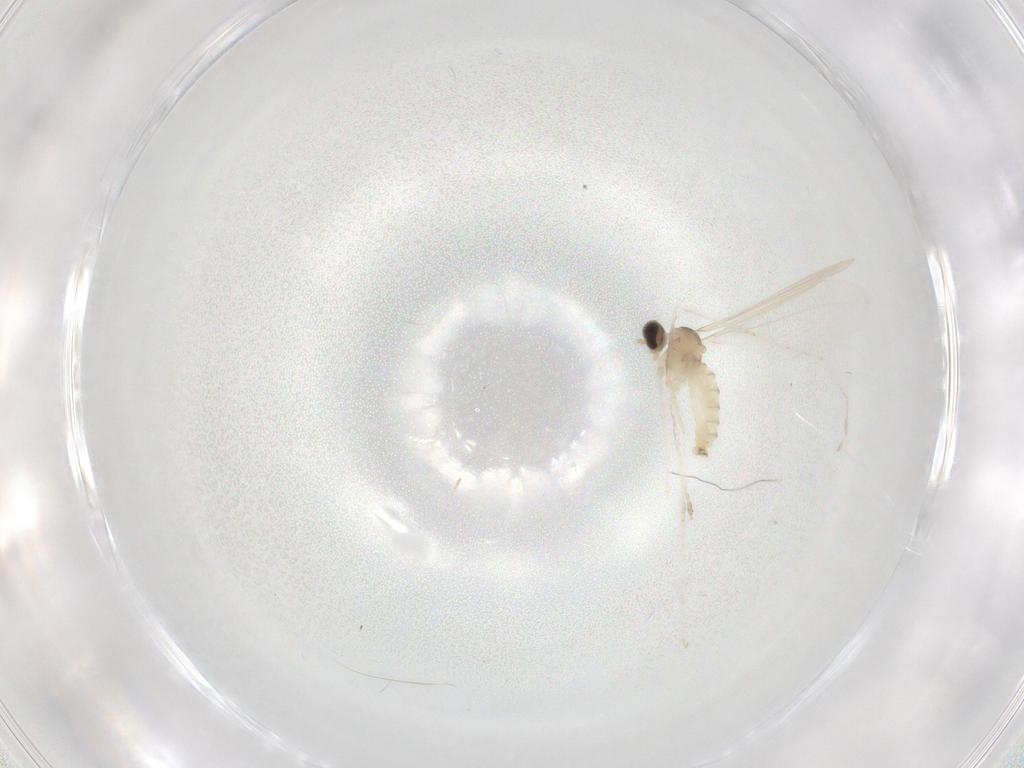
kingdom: Animalia
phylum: Arthropoda
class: Insecta
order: Diptera
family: Cecidomyiidae
